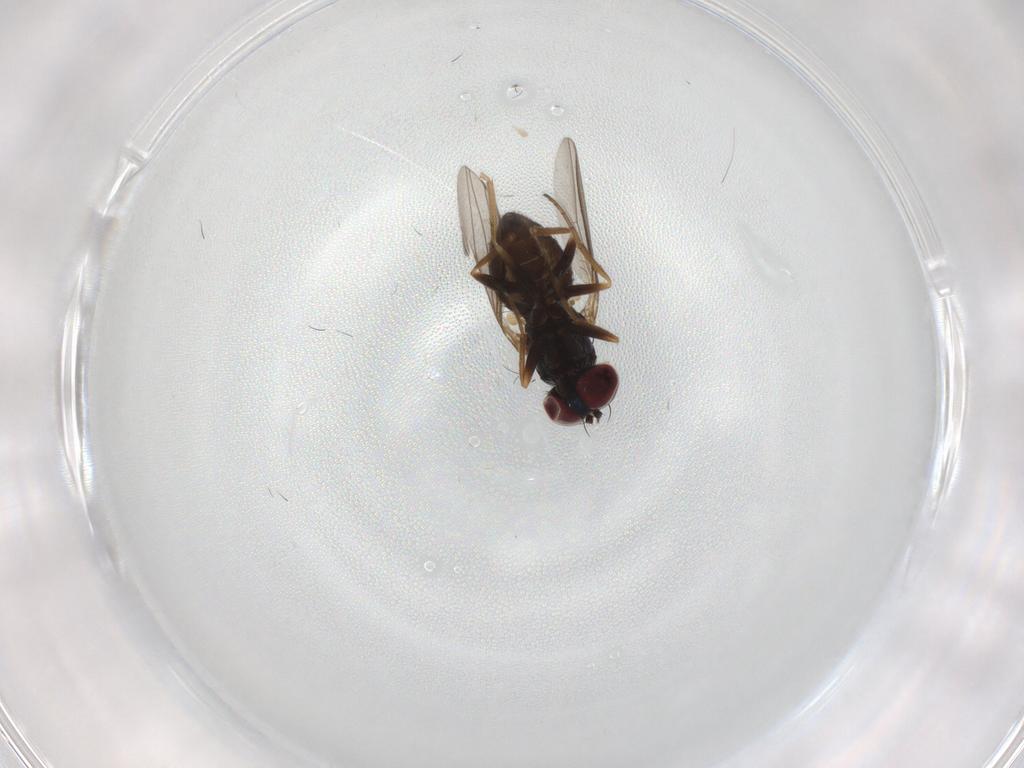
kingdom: Animalia
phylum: Arthropoda
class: Insecta
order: Diptera
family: Dolichopodidae
